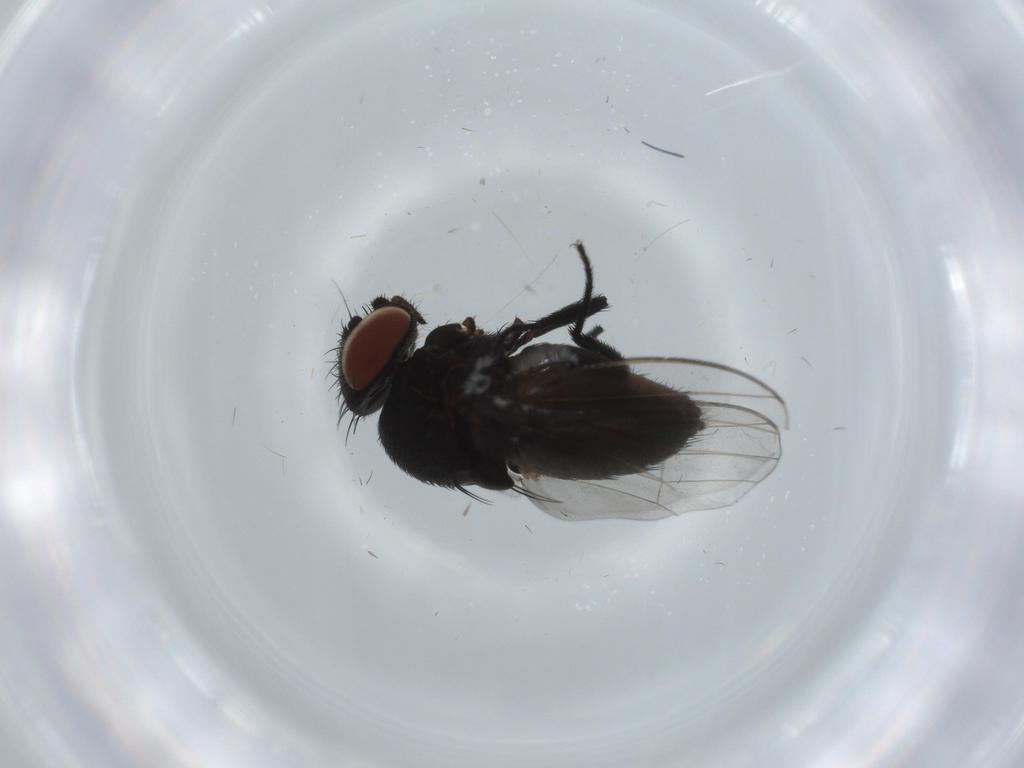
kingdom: Animalia
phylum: Arthropoda
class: Insecta
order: Diptera
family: Milichiidae
